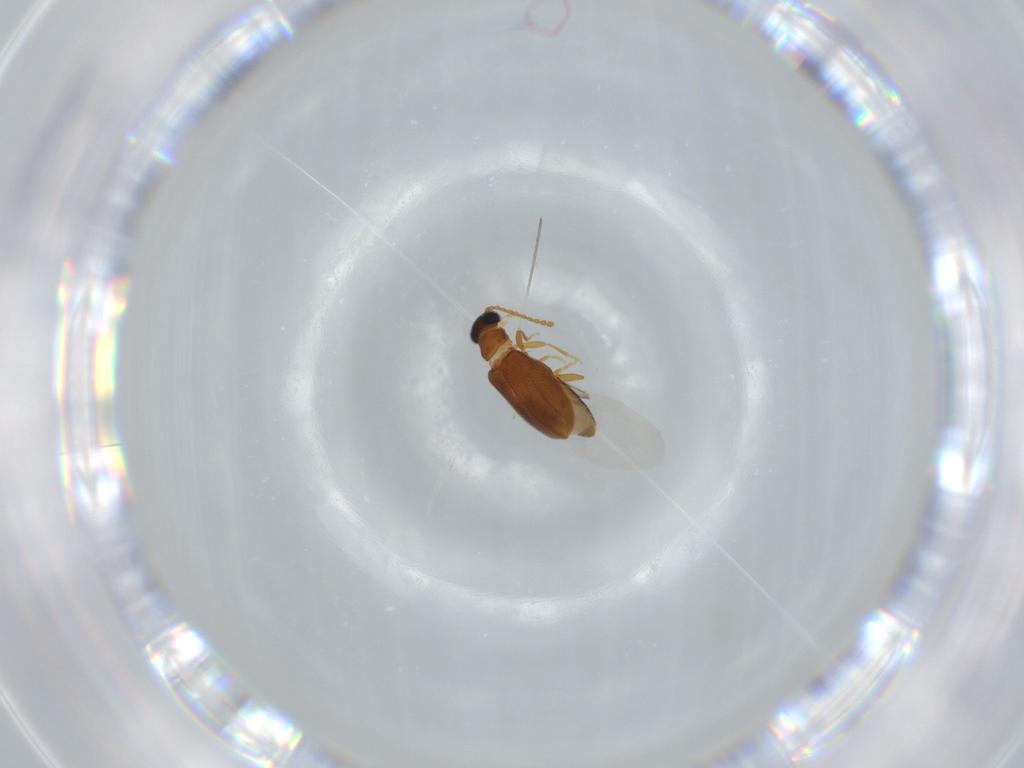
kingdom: Animalia
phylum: Arthropoda
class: Insecta
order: Coleoptera
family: Aderidae
